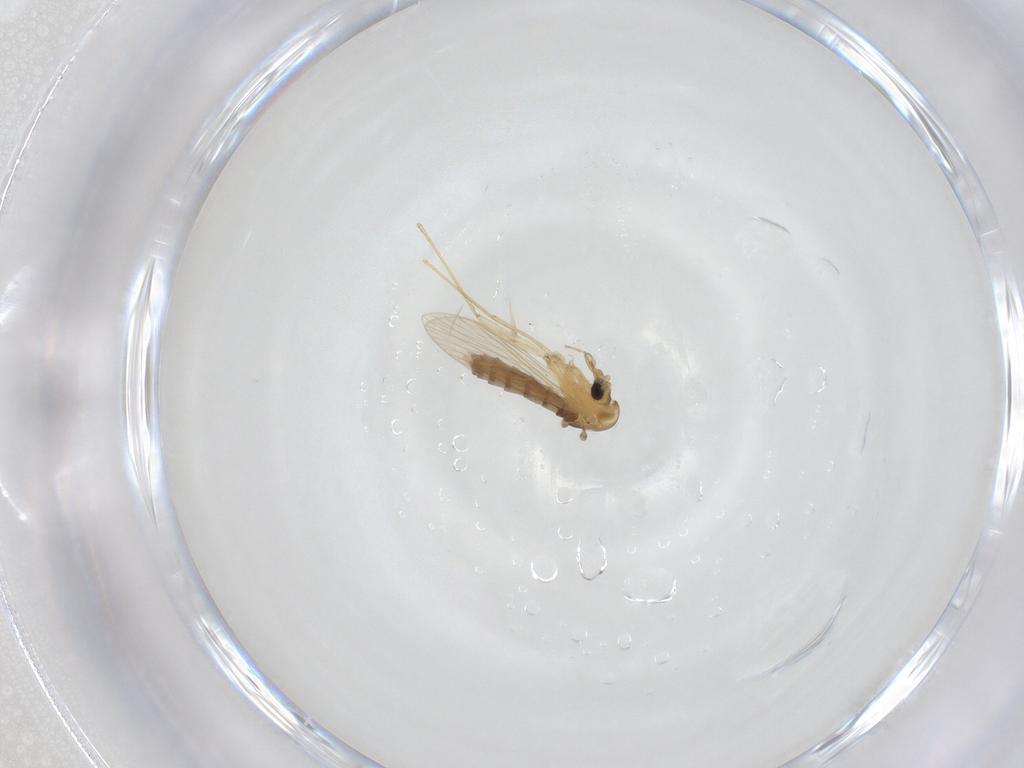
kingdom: Animalia
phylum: Arthropoda
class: Insecta
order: Diptera
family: Psychodidae
